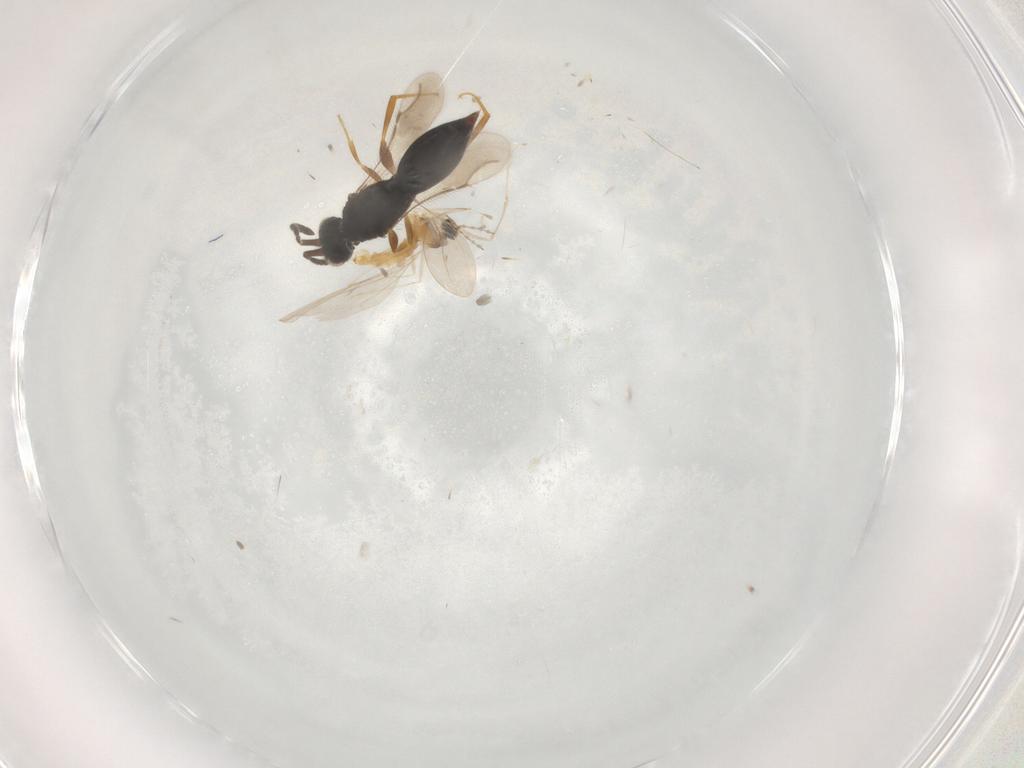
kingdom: Animalia
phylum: Arthropoda
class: Insecta
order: Diptera
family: Cecidomyiidae
